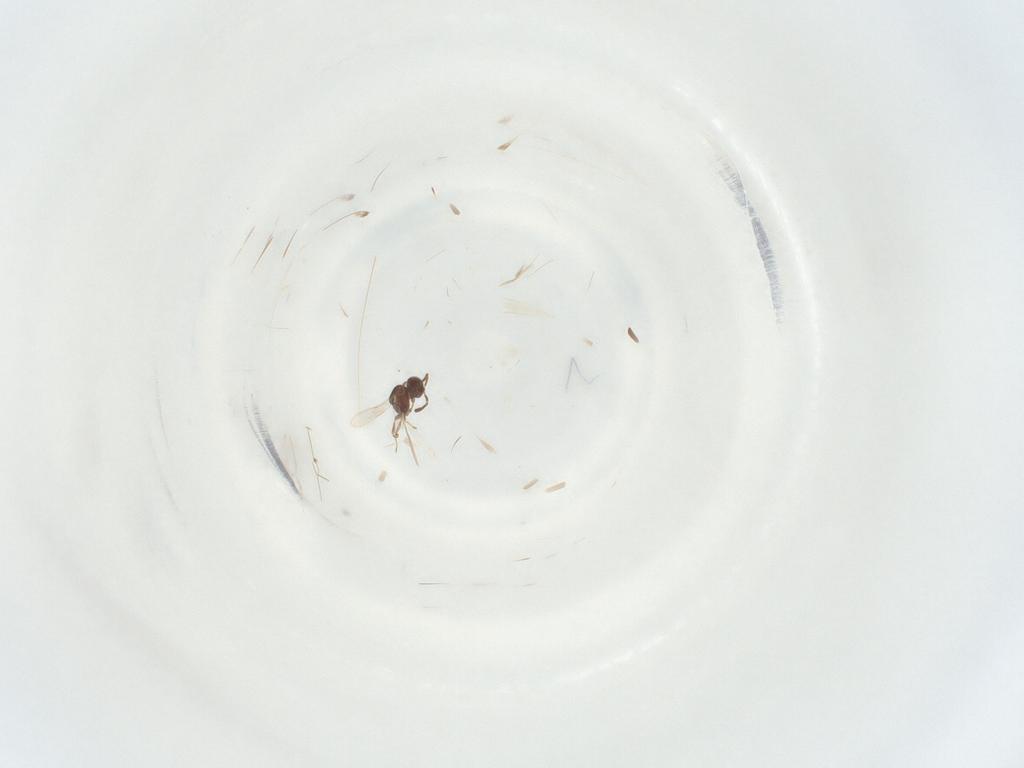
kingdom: Animalia
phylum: Arthropoda
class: Insecta
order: Hymenoptera
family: Scelionidae
